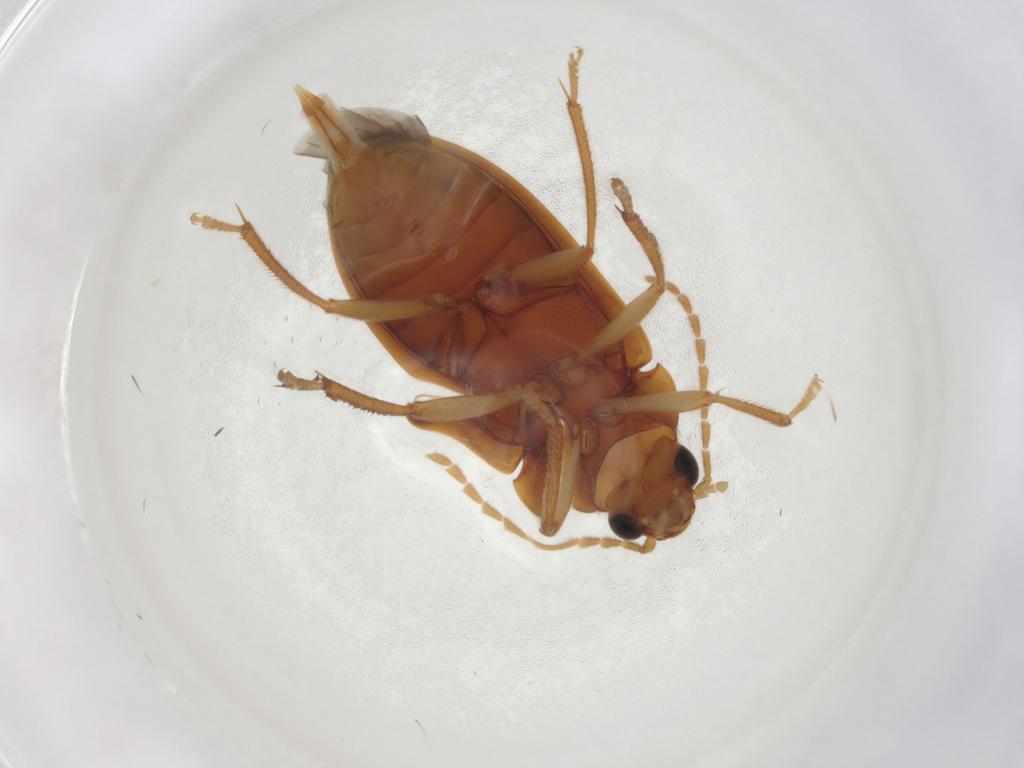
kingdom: Animalia
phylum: Arthropoda
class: Insecta
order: Coleoptera
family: Ptilodactylidae
